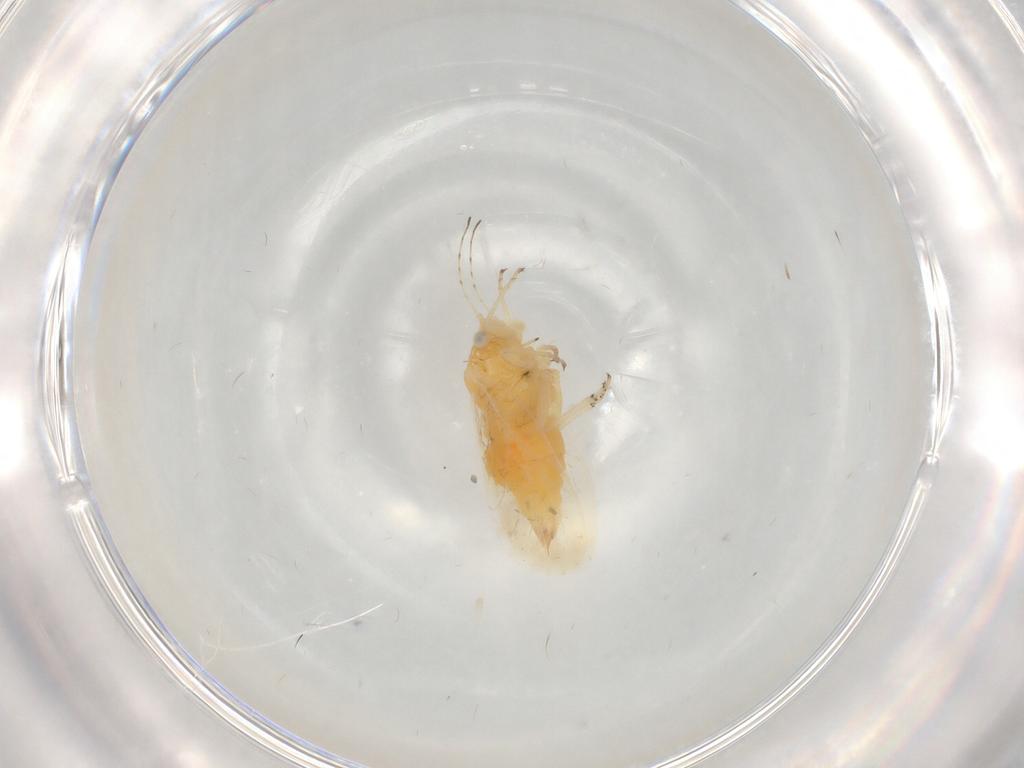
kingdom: Animalia
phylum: Arthropoda
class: Insecta
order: Hemiptera
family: Psyllidae
